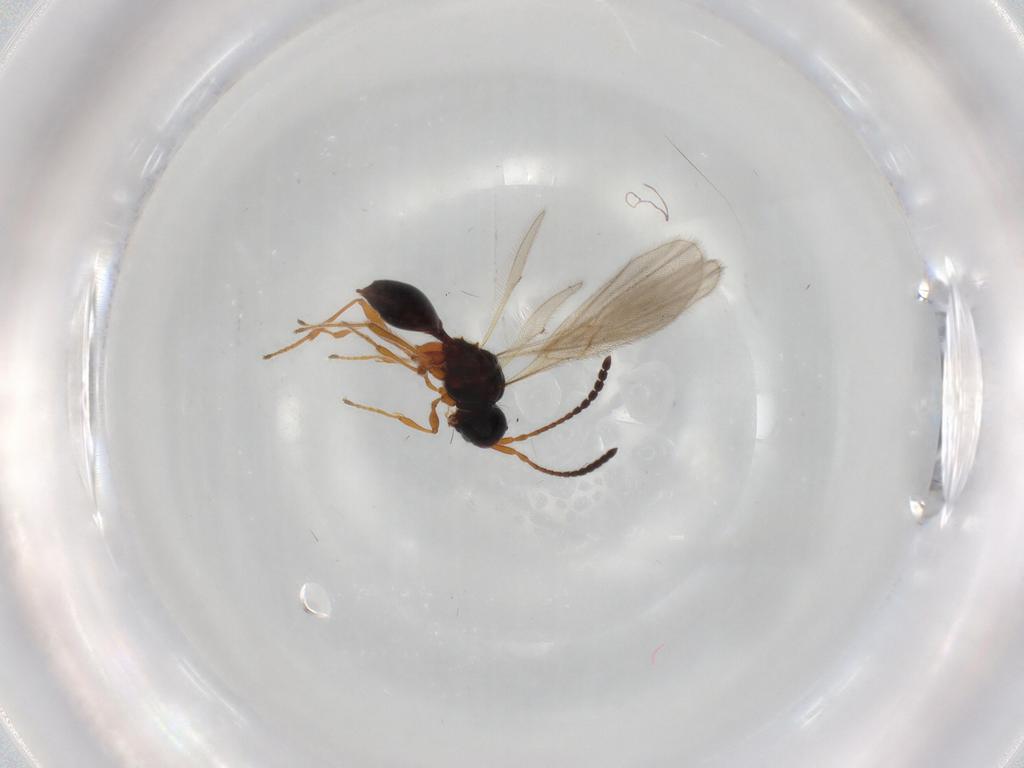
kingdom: Animalia
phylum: Arthropoda
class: Insecta
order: Hymenoptera
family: Diapriidae
